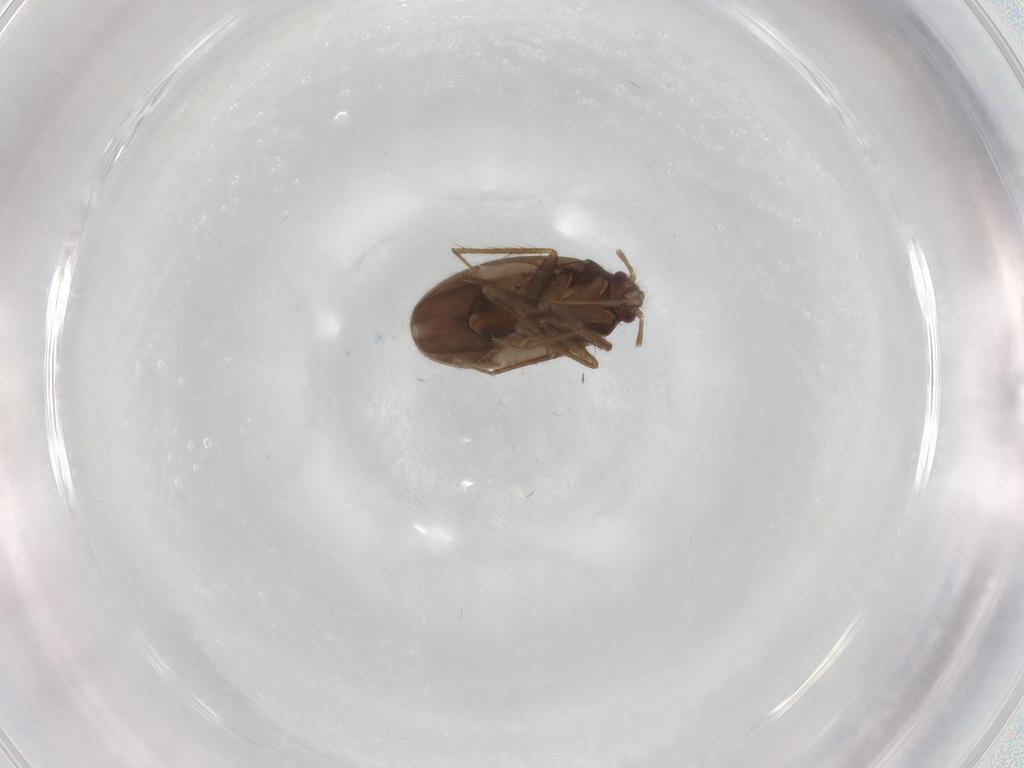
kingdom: Animalia
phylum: Arthropoda
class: Insecta
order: Hemiptera
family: Ceratocombidae
